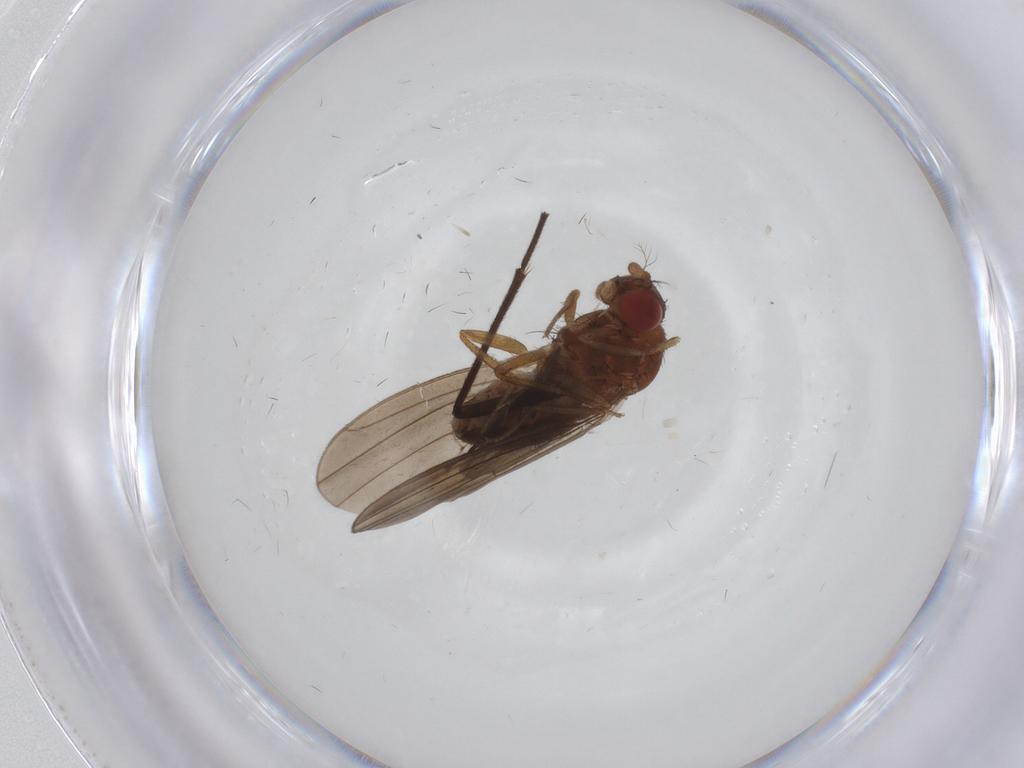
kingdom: Animalia
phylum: Arthropoda
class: Insecta
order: Diptera
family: Drosophilidae
